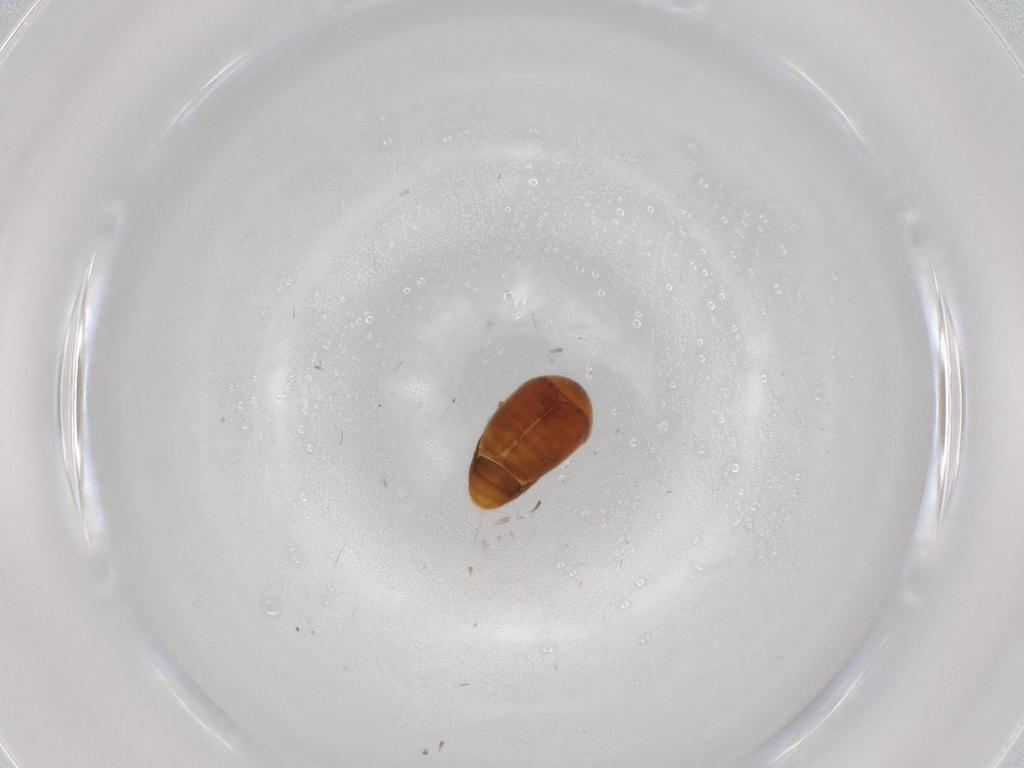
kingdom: Animalia
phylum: Arthropoda
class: Insecta
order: Coleoptera
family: Corylophidae
